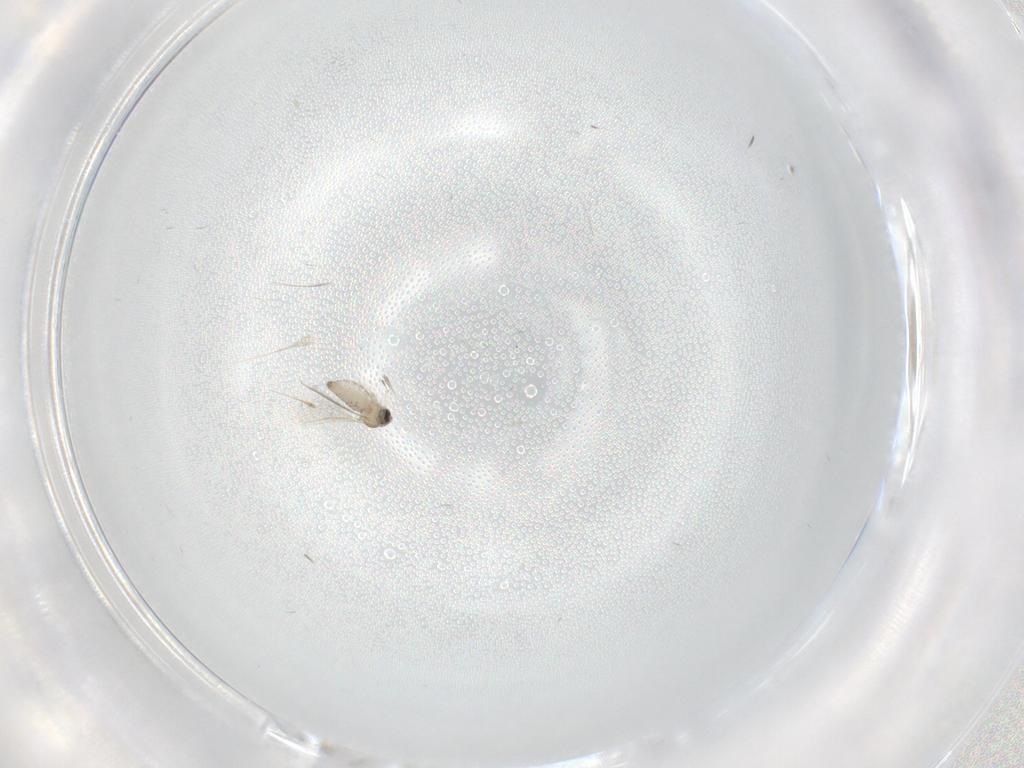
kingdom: Animalia
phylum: Arthropoda
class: Insecta
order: Diptera
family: Cecidomyiidae
